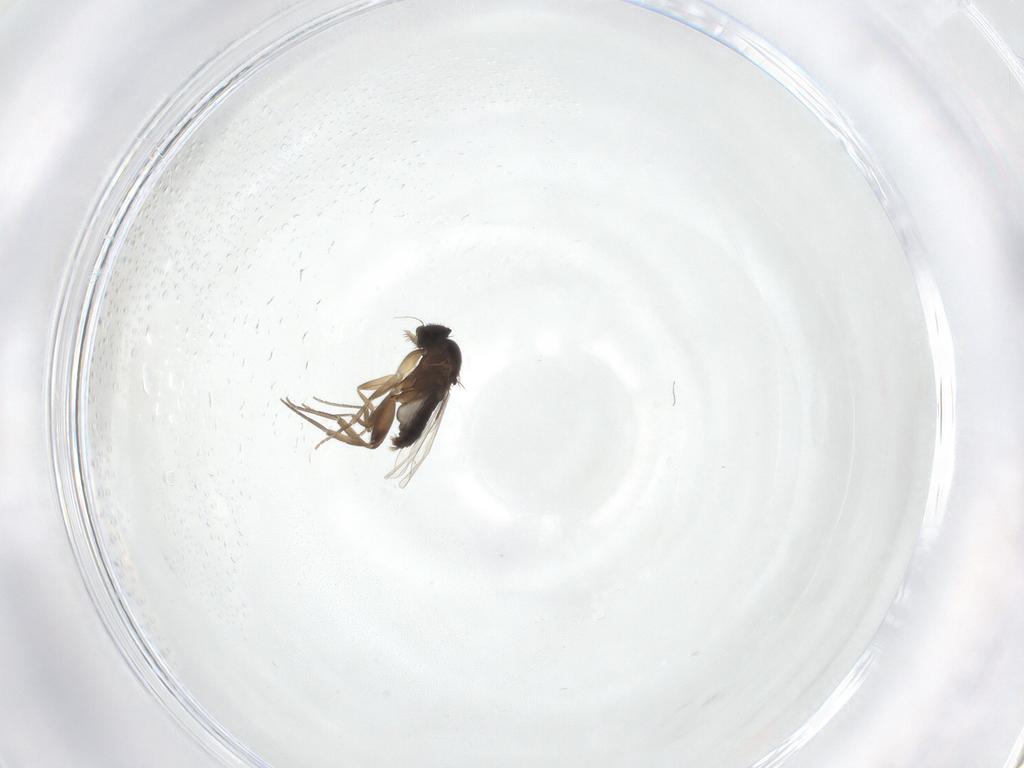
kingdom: Animalia
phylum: Arthropoda
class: Insecta
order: Diptera
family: Phoridae
